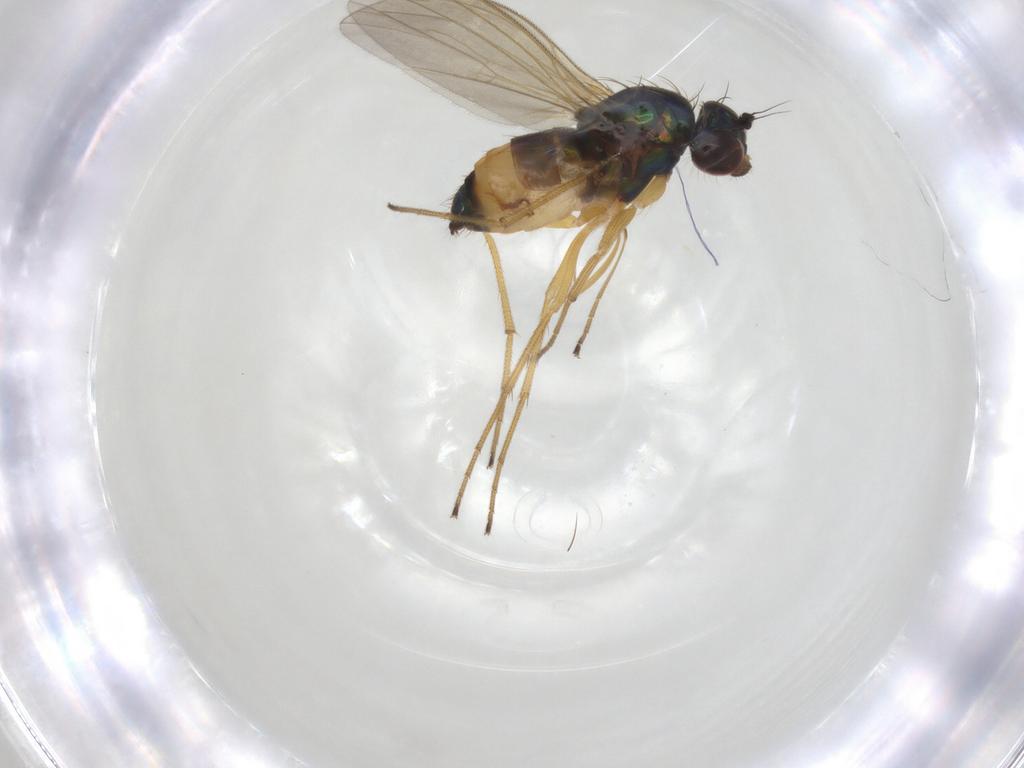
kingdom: Animalia
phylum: Arthropoda
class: Insecta
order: Diptera
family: Dolichopodidae
